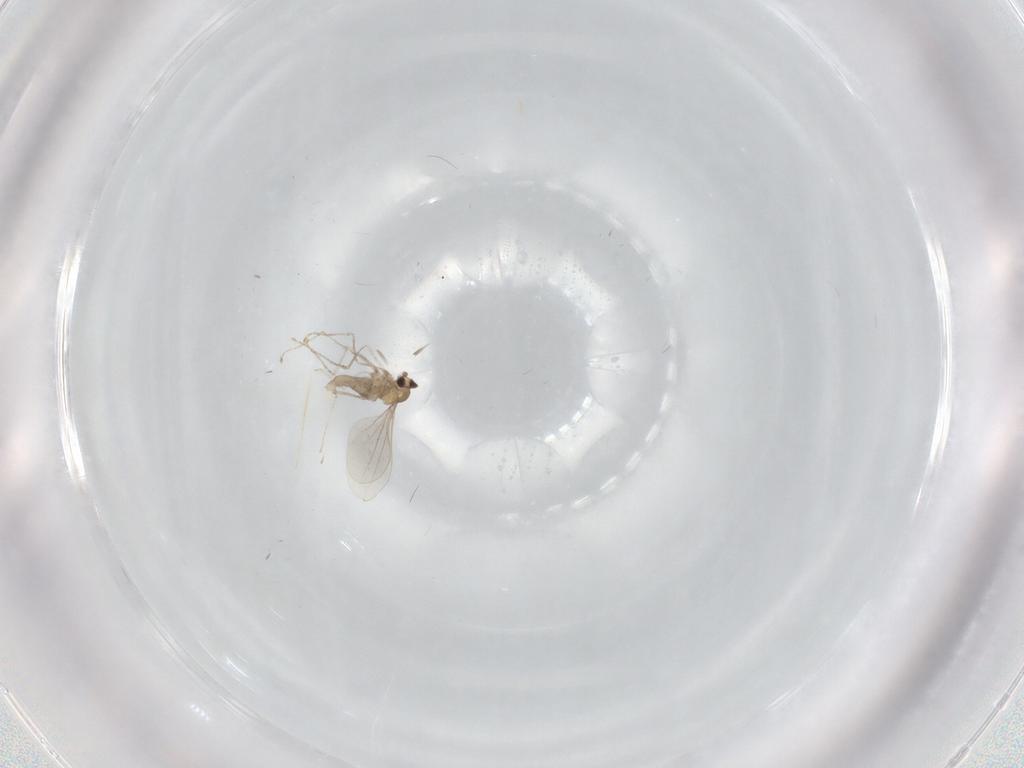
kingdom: Animalia
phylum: Arthropoda
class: Insecta
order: Diptera
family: Cecidomyiidae
